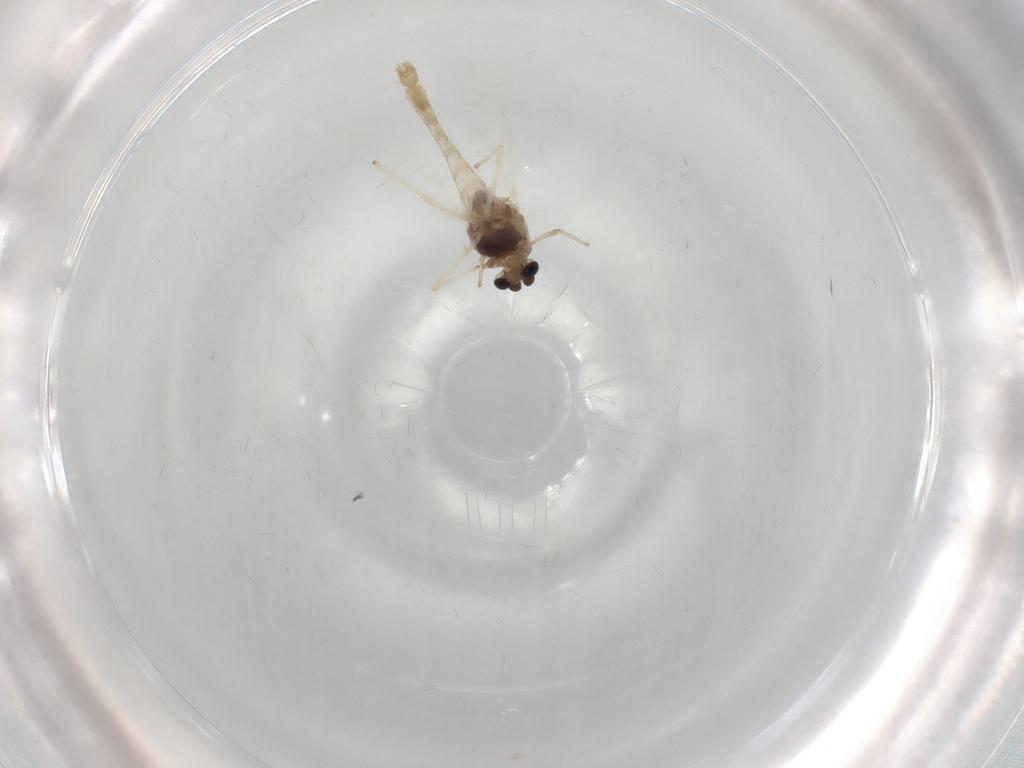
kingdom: Animalia
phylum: Arthropoda
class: Insecta
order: Diptera
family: Chironomidae
